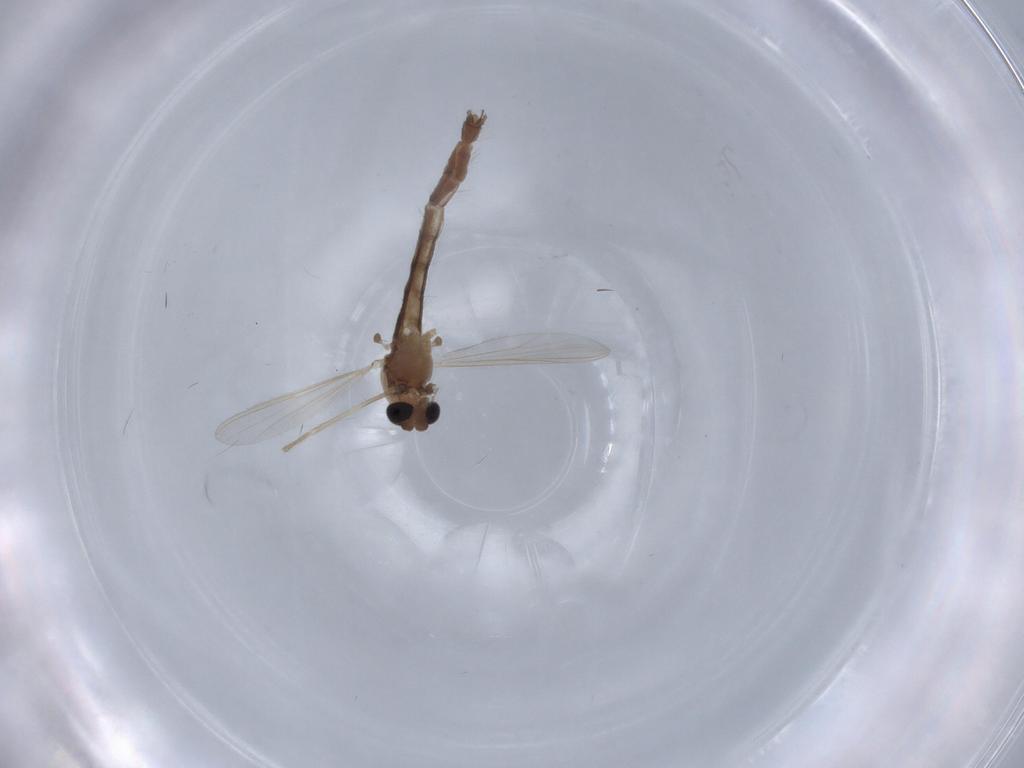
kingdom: Animalia
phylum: Arthropoda
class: Insecta
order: Diptera
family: Chironomidae
